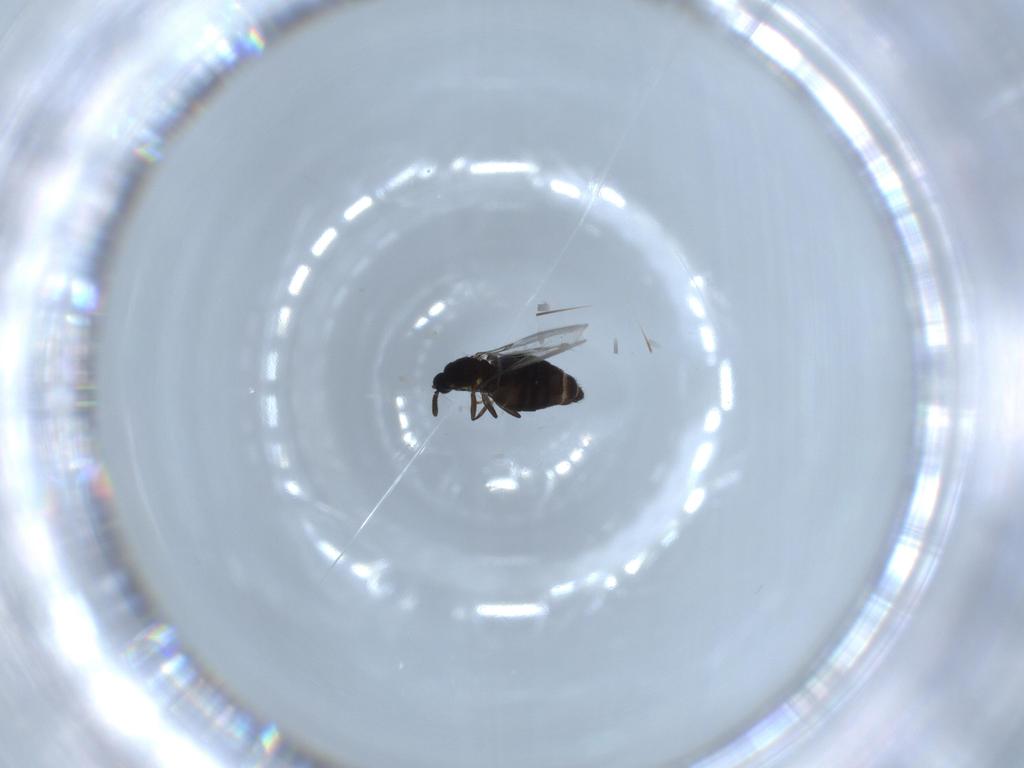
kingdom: Animalia
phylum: Arthropoda
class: Insecta
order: Diptera
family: Scatopsidae
